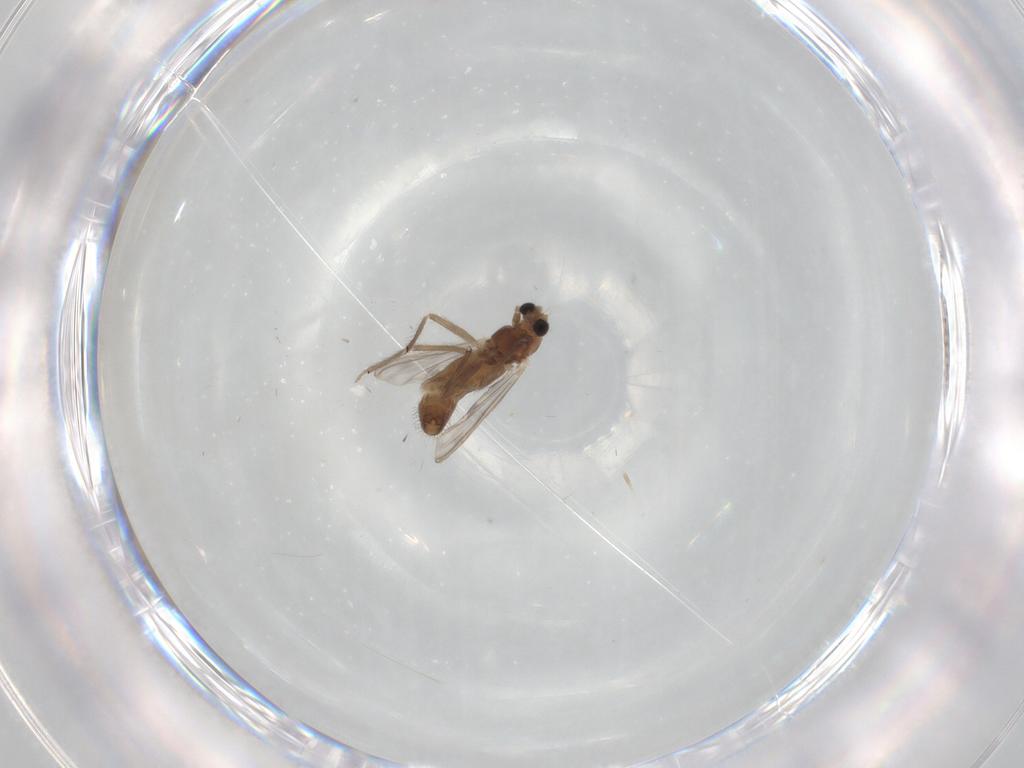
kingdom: Animalia
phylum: Arthropoda
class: Insecta
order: Diptera
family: Chironomidae
